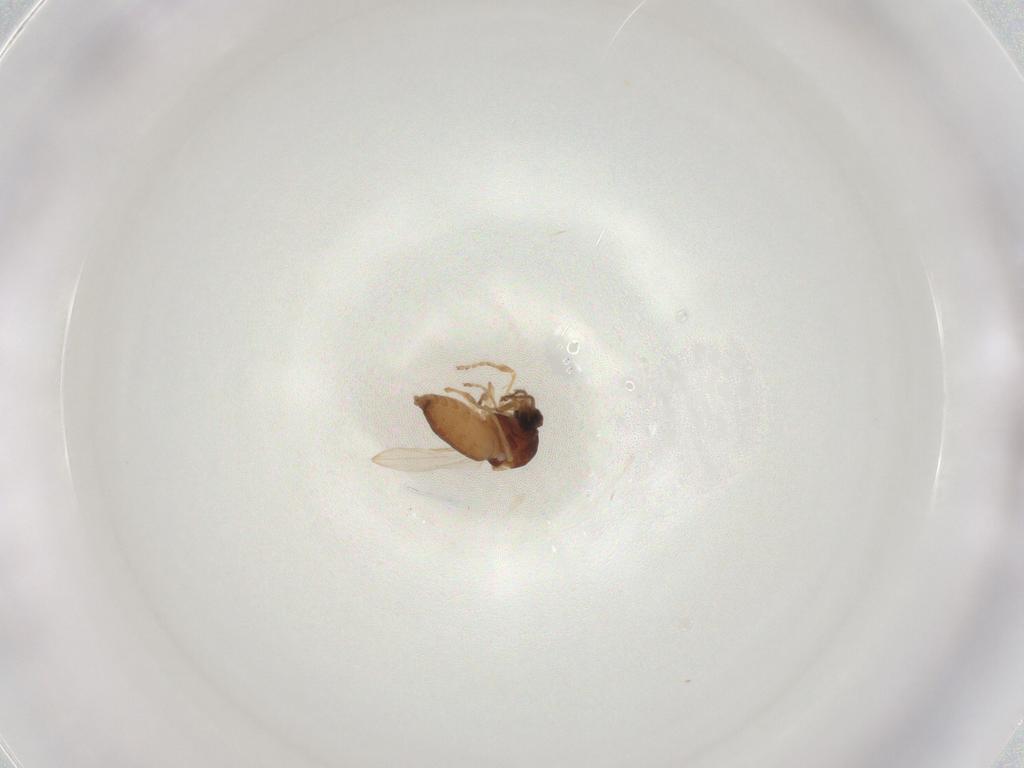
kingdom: Animalia
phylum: Arthropoda
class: Insecta
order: Diptera
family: Agromyzidae
